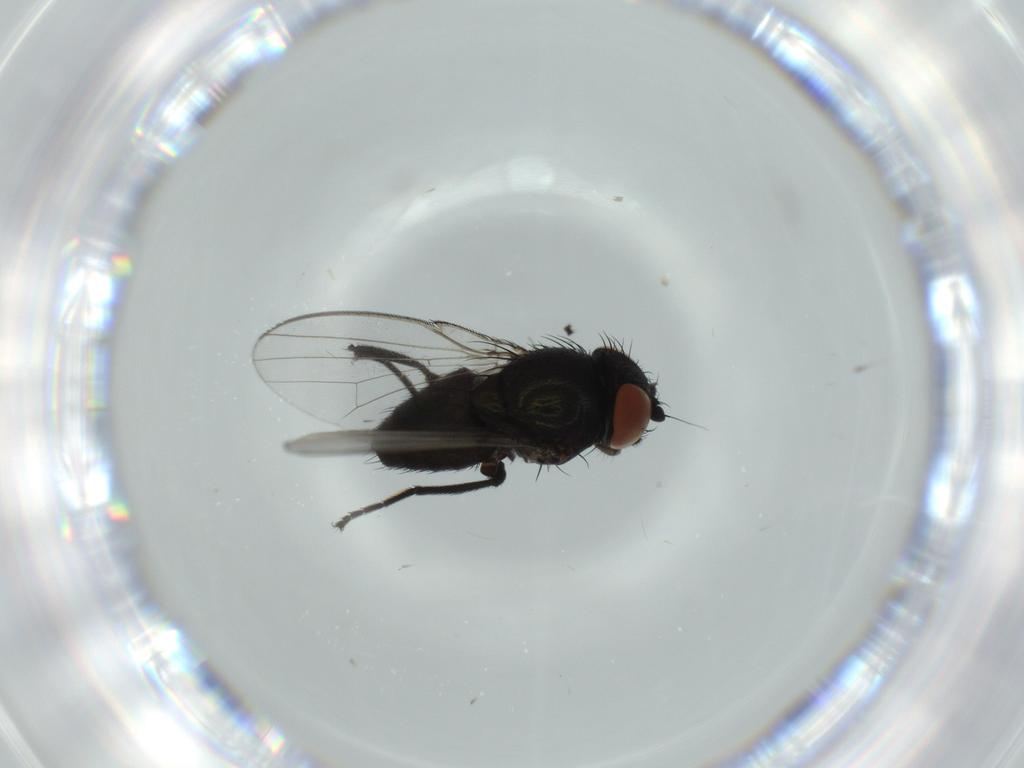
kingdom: Animalia
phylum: Arthropoda
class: Insecta
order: Diptera
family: Milichiidae
